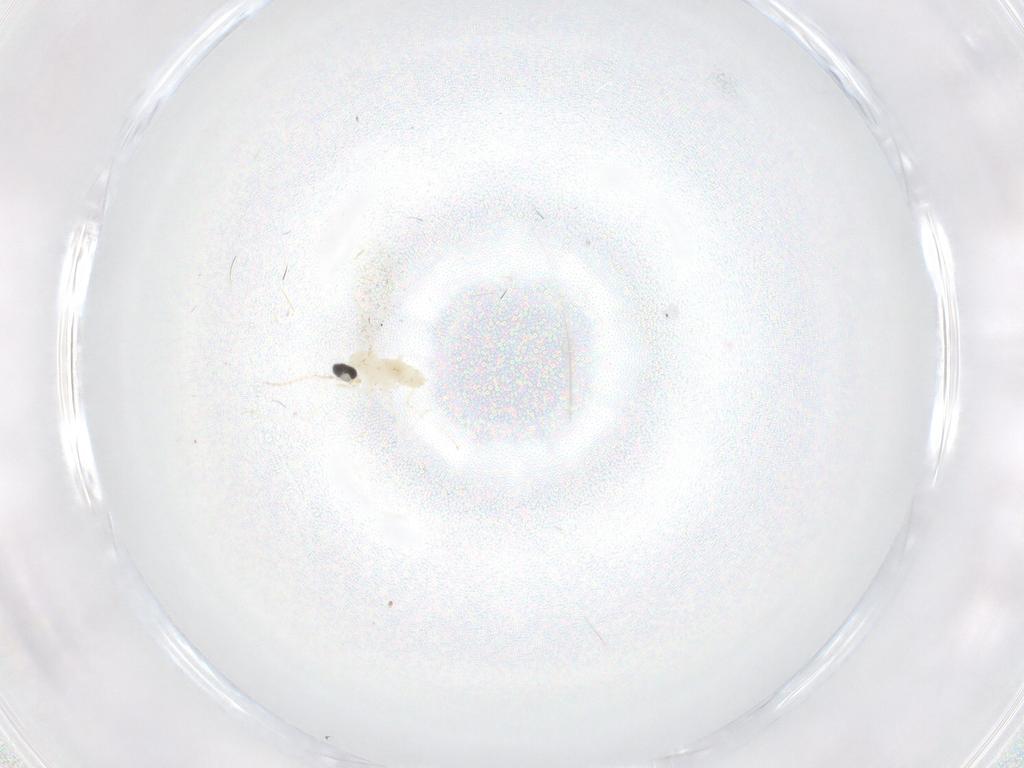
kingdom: Animalia
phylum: Arthropoda
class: Insecta
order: Diptera
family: Cecidomyiidae
